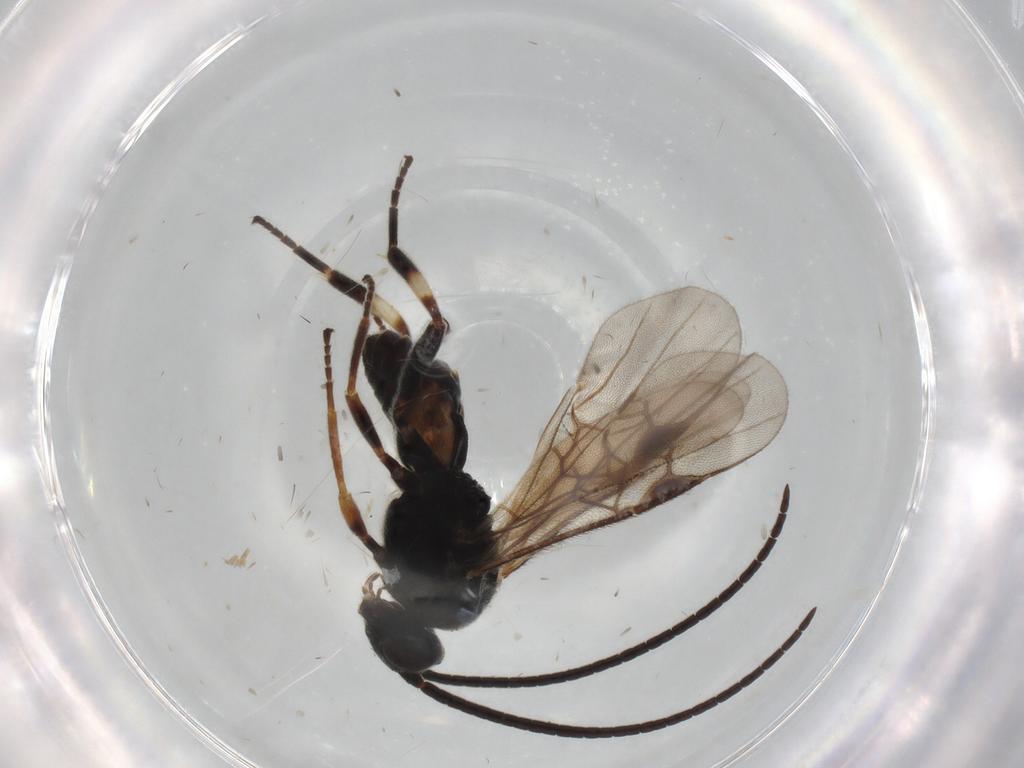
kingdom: Animalia
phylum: Arthropoda
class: Insecta
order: Hymenoptera
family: Braconidae
